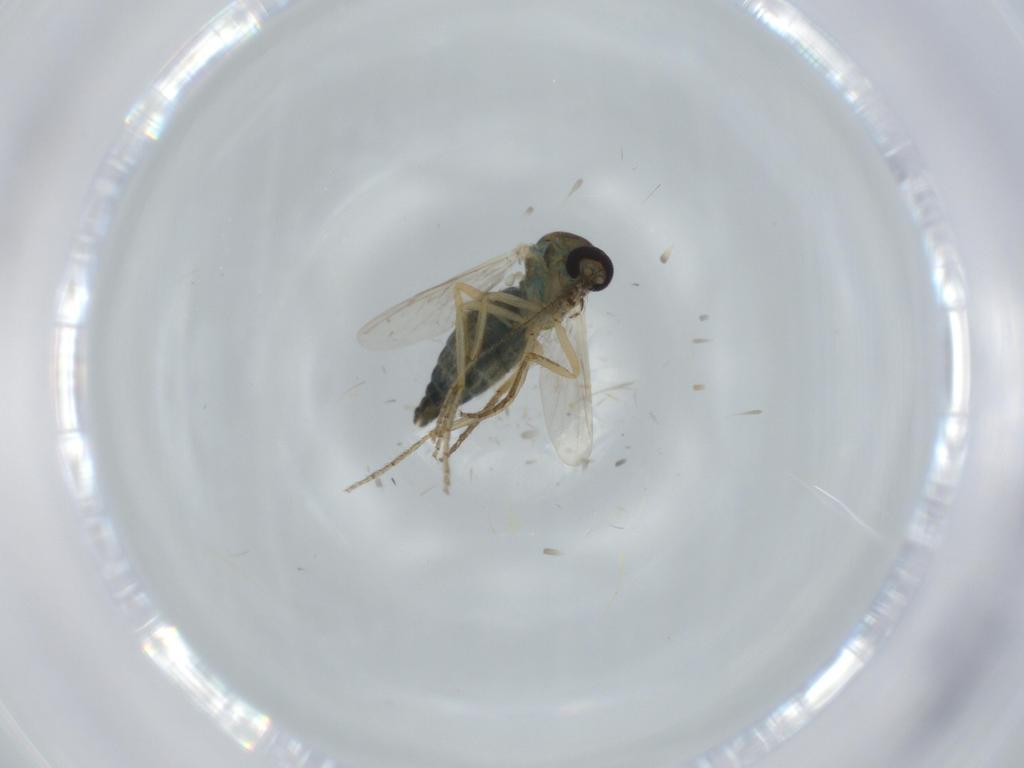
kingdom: Animalia
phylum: Arthropoda
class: Insecta
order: Diptera
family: Ceratopogonidae
